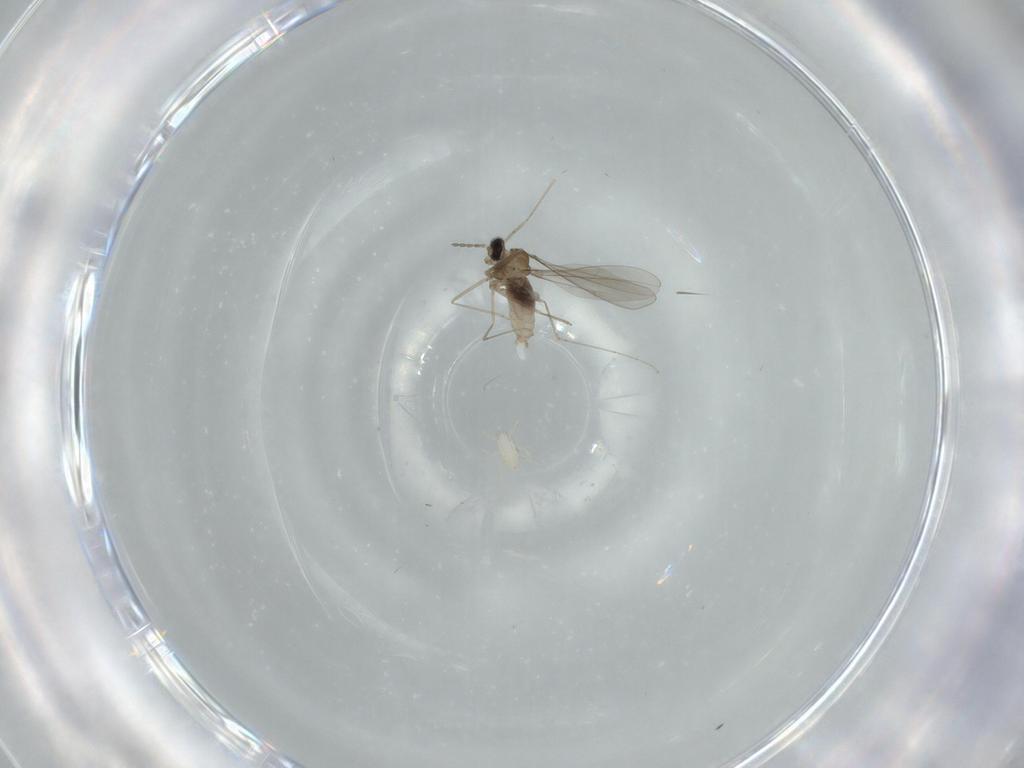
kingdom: Animalia
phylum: Arthropoda
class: Insecta
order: Diptera
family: Cecidomyiidae
